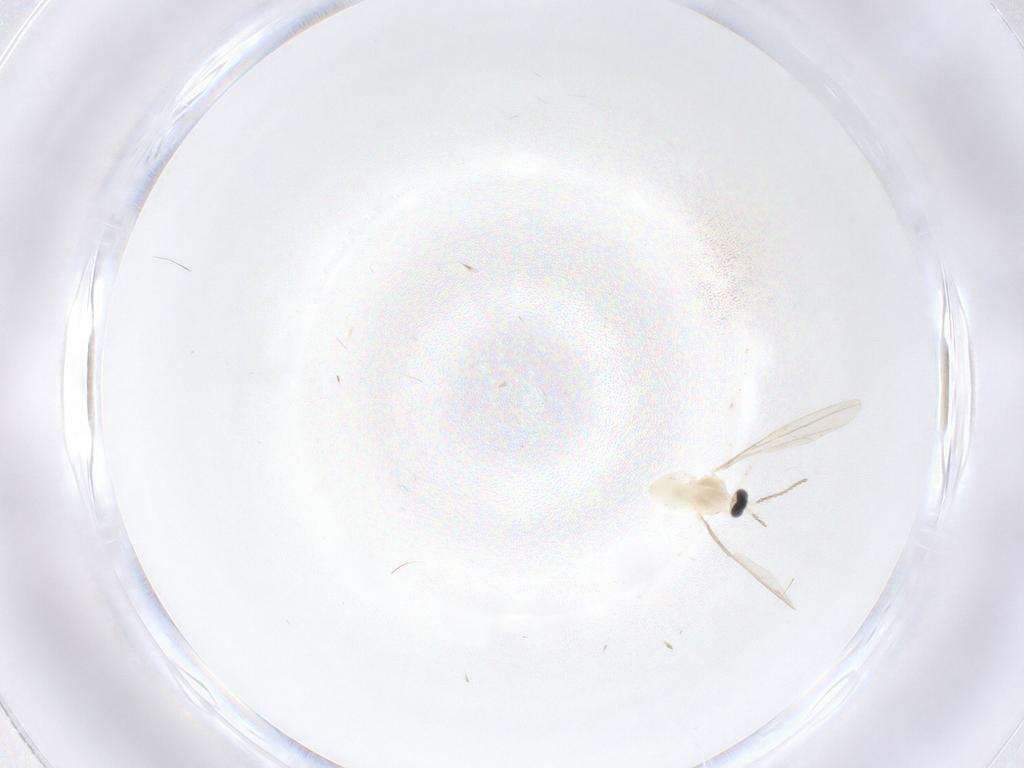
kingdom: Animalia
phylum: Arthropoda
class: Insecta
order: Diptera
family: Cecidomyiidae
